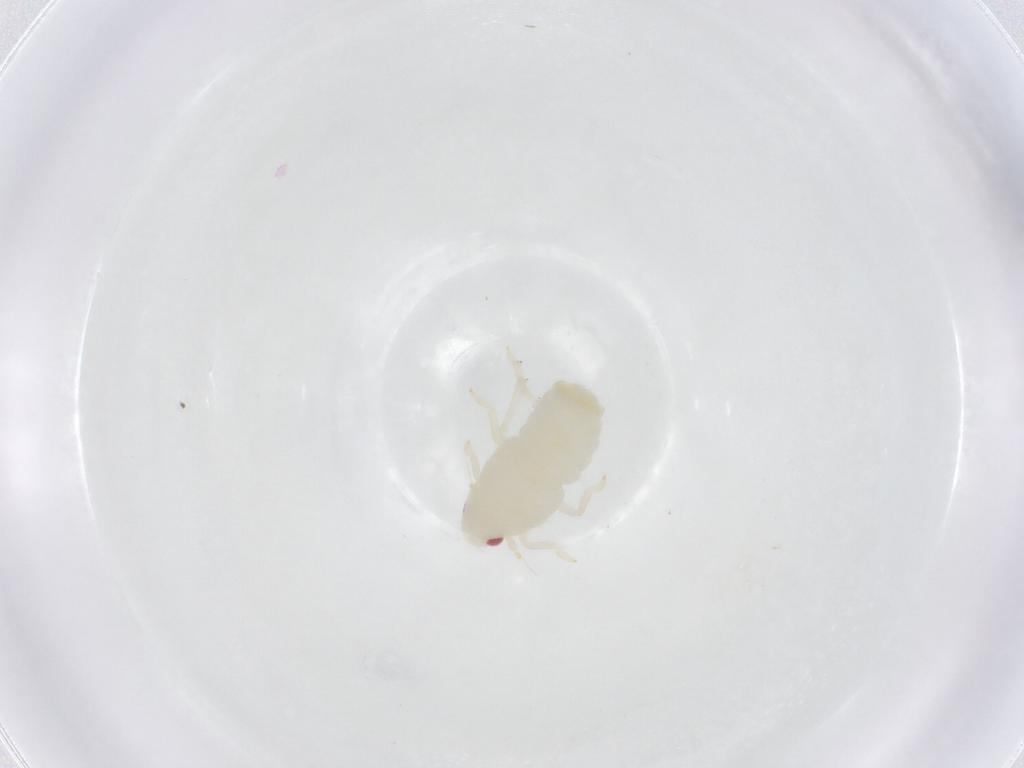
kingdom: Animalia
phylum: Arthropoda
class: Insecta
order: Hemiptera
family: Flatidae
